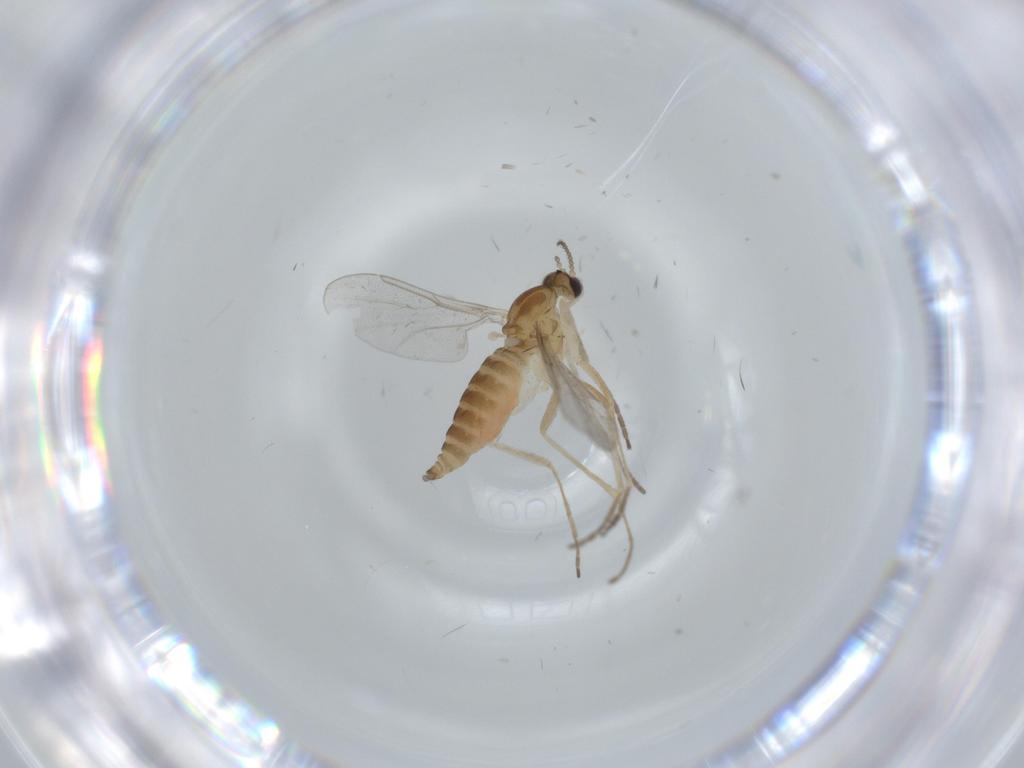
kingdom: Animalia
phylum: Arthropoda
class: Insecta
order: Diptera
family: Cecidomyiidae
